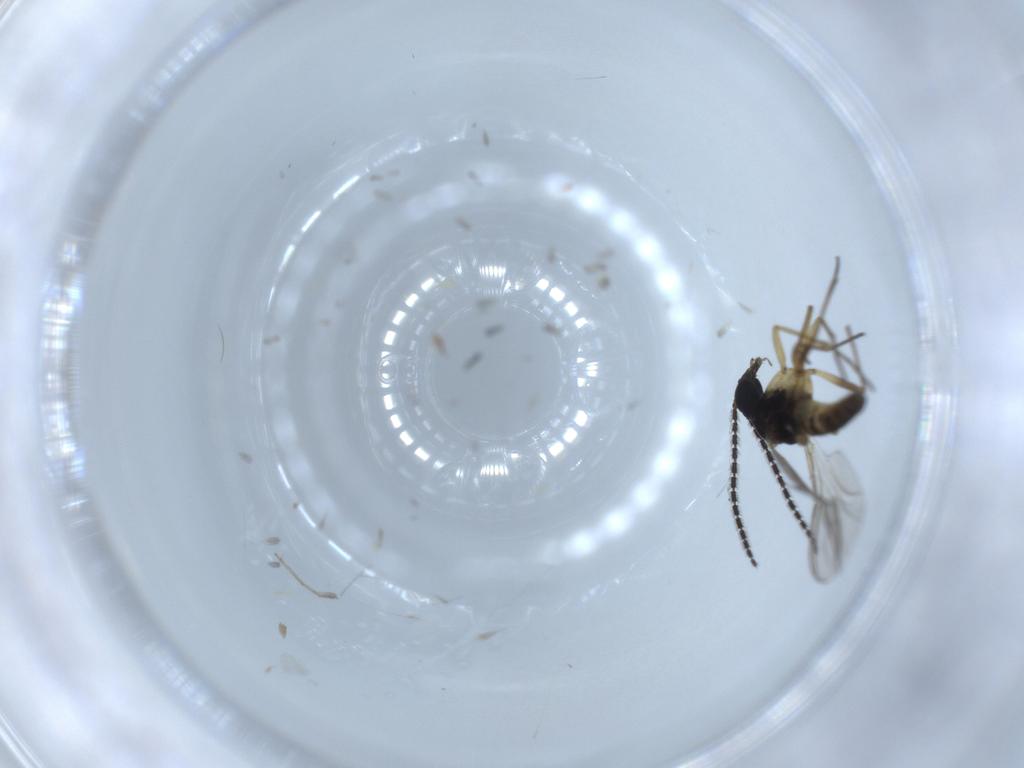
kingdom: Animalia
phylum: Arthropoda
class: Insecta
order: Diptera
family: Sciaridae
